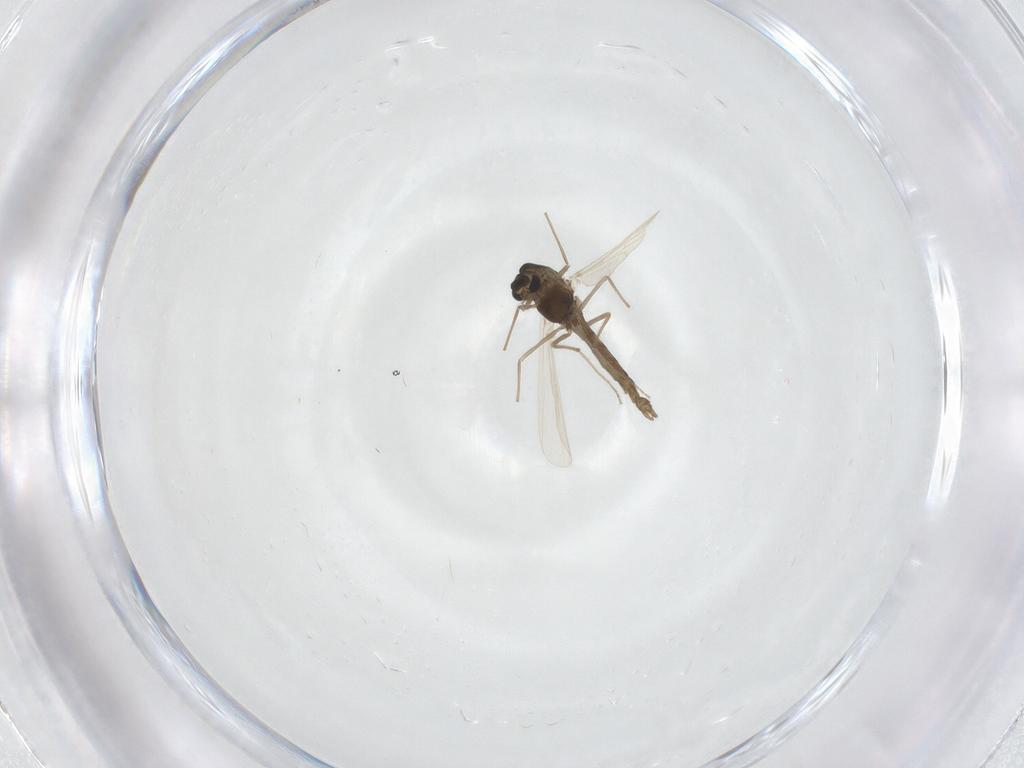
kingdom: Animalia
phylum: Arthropoda
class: Insecta
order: Diptera
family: Chironomidae
